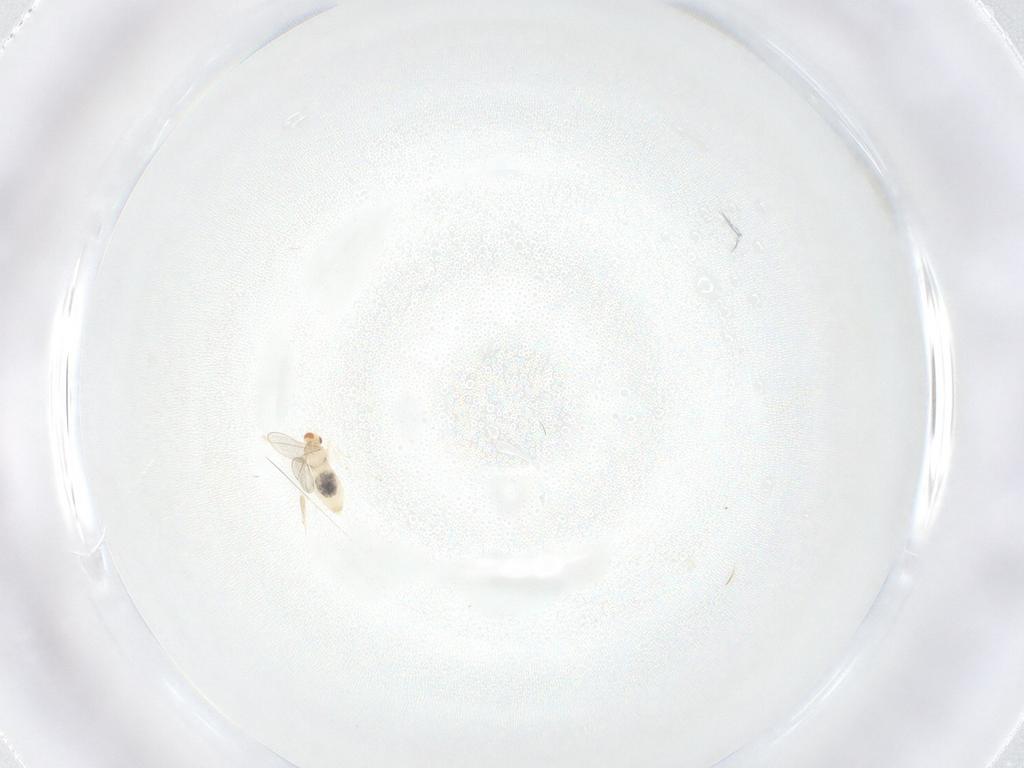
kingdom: Animalia
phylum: Arthropoda
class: Insecta
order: Diptera
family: Cecidomyiidae
